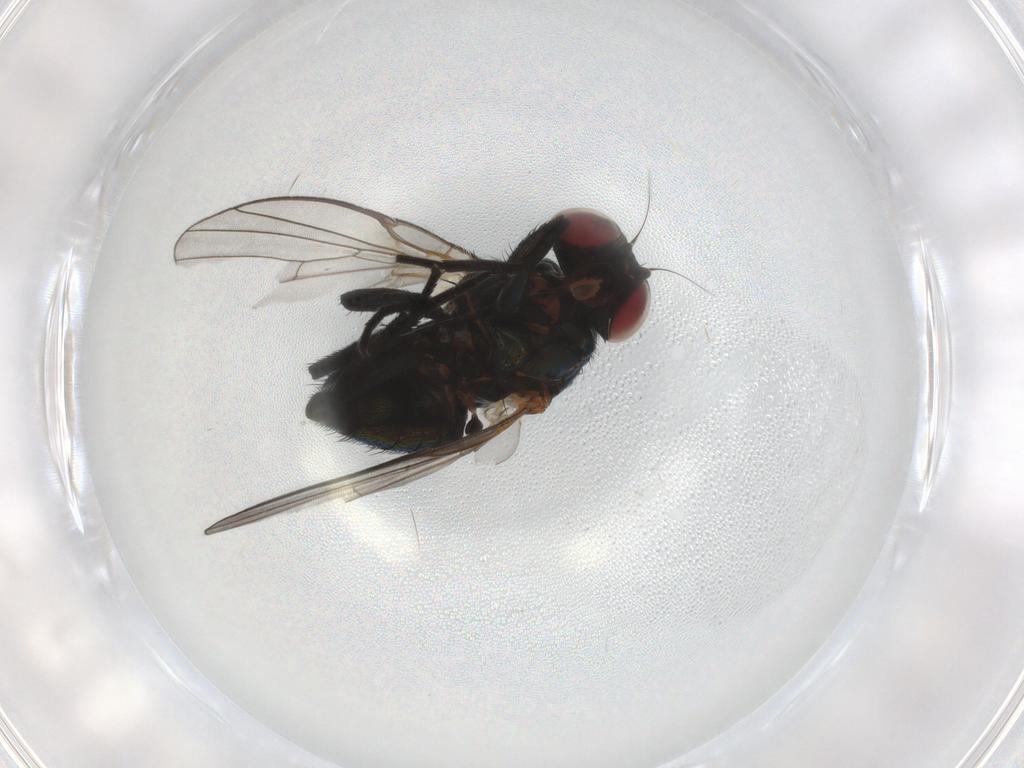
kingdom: Animalia
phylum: Arthropoda
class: Insecta
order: Diptera
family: Agromyzidae
